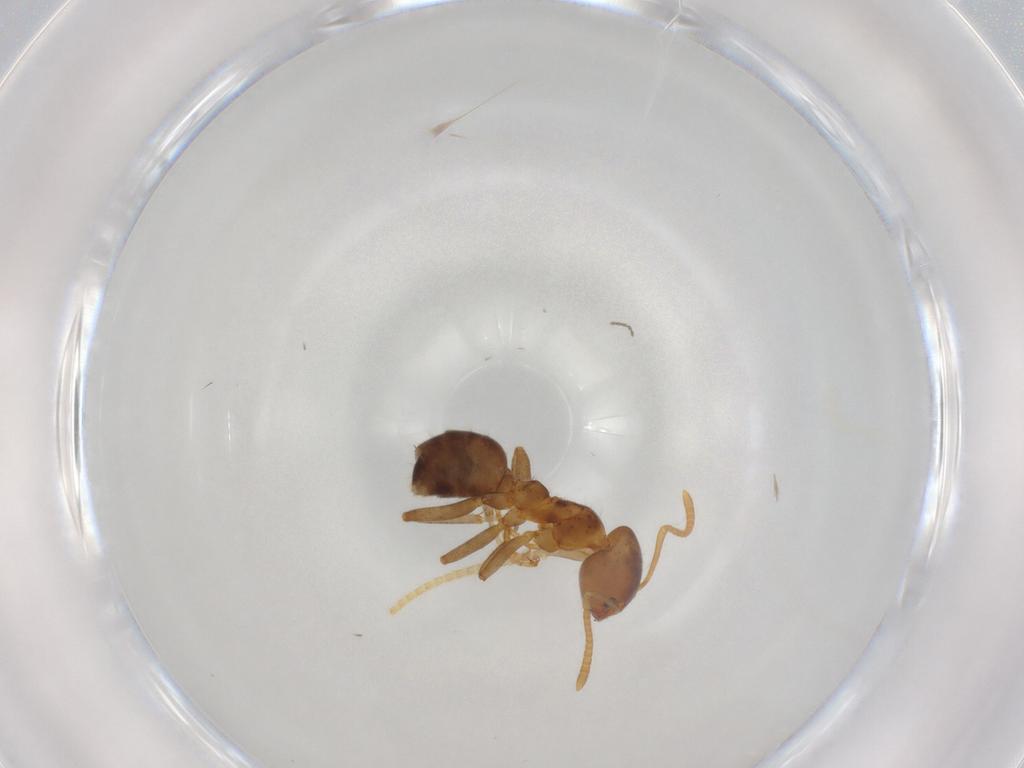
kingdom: Animalia
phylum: Arthropoda
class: Insecta
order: Hymenoptera
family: Formicidae
